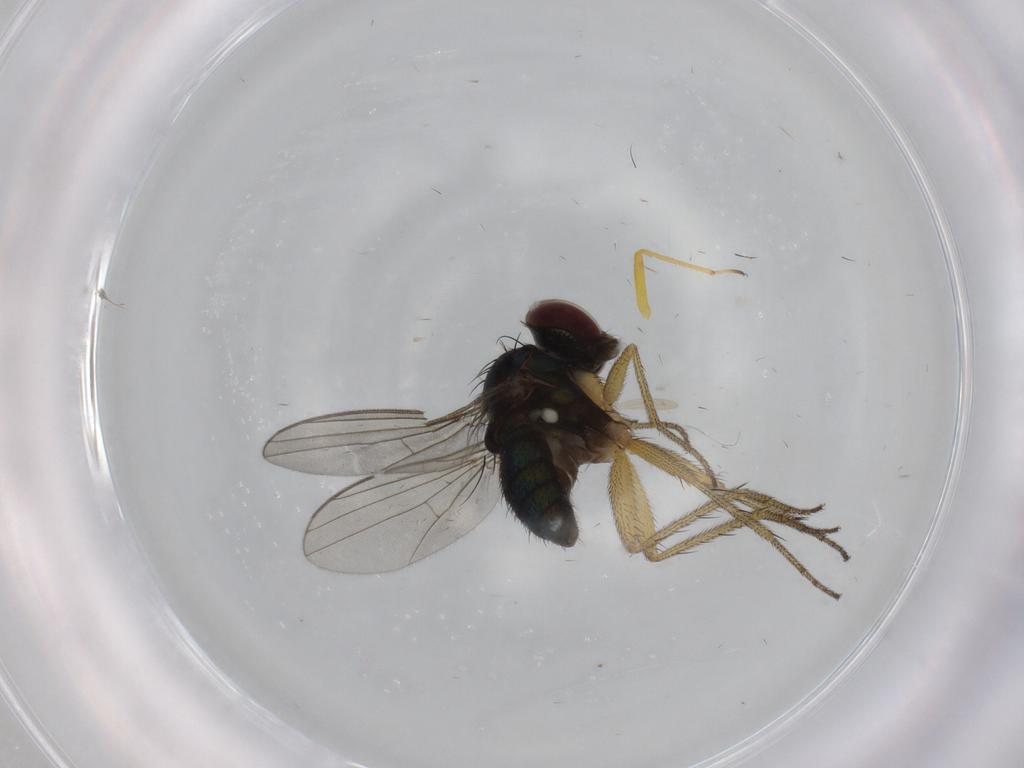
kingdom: Animalia
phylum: Arthropoda
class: Insecta
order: Diptera
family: Dolichopodidae
